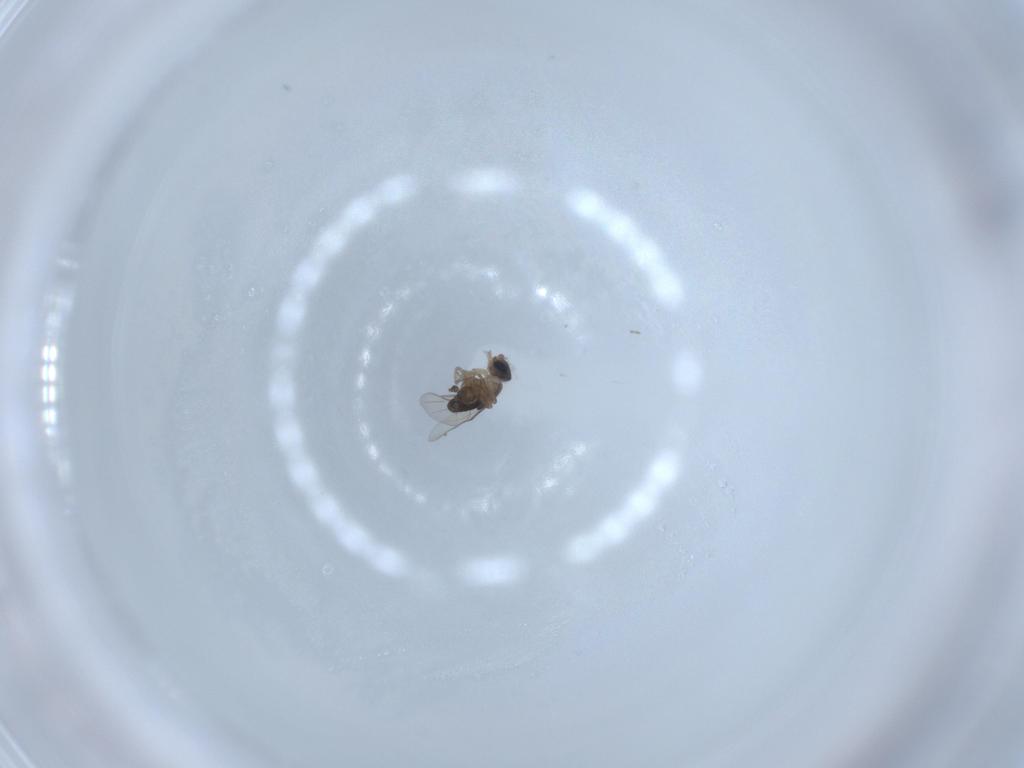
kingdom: Animalia
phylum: Arthropoda
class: Insecta
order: Diptera
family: Phoridae
